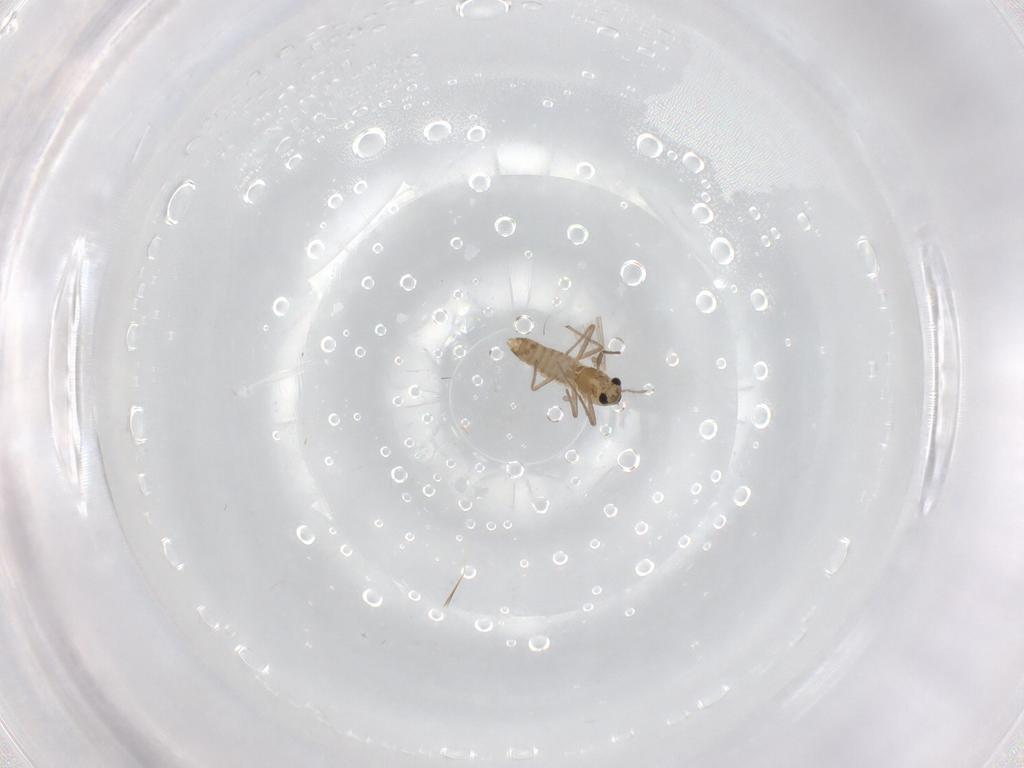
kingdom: Animalia
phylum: Arthropoda
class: Insecta
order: Diptera
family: Chironomidae
